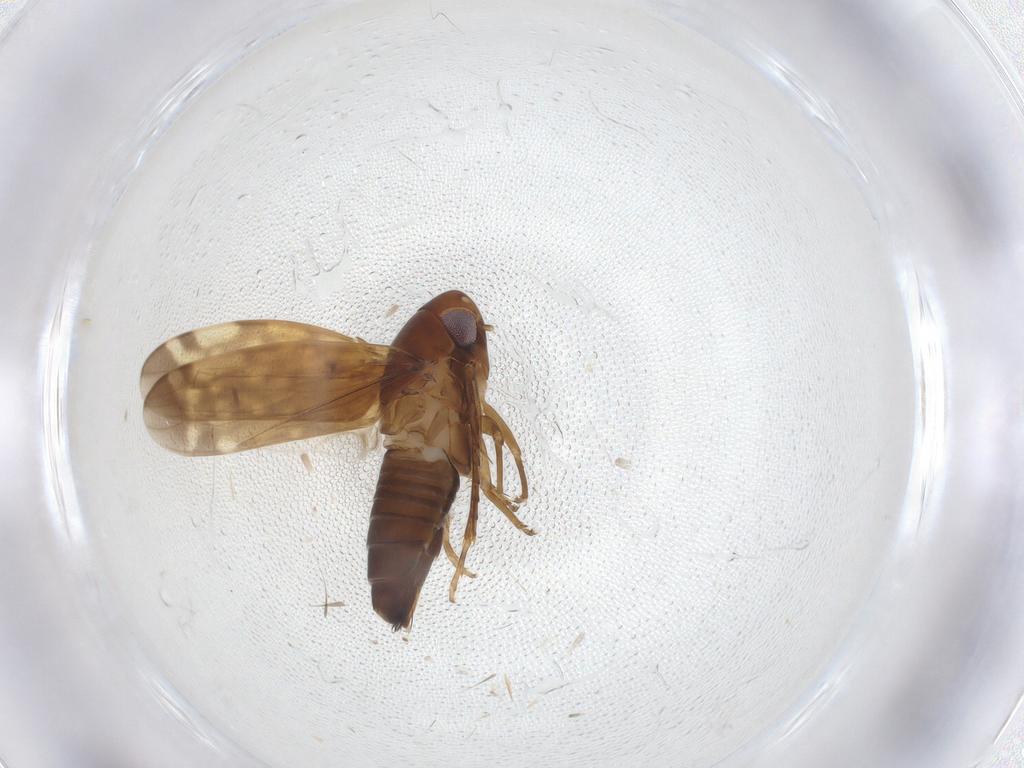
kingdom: Animalia
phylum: Arthropoda
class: Insecta
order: Hemiptera
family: Cicadellidae
